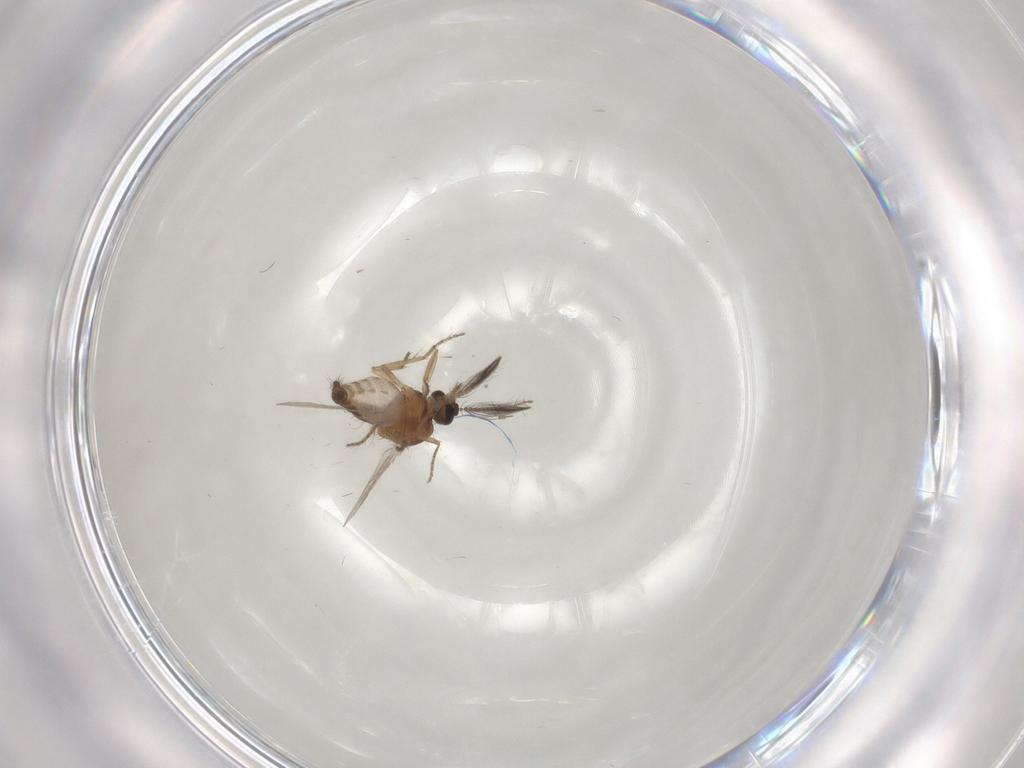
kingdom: Animalia
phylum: Arthropoda
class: Insecta
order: Diptera
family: Ceratopogonidae
